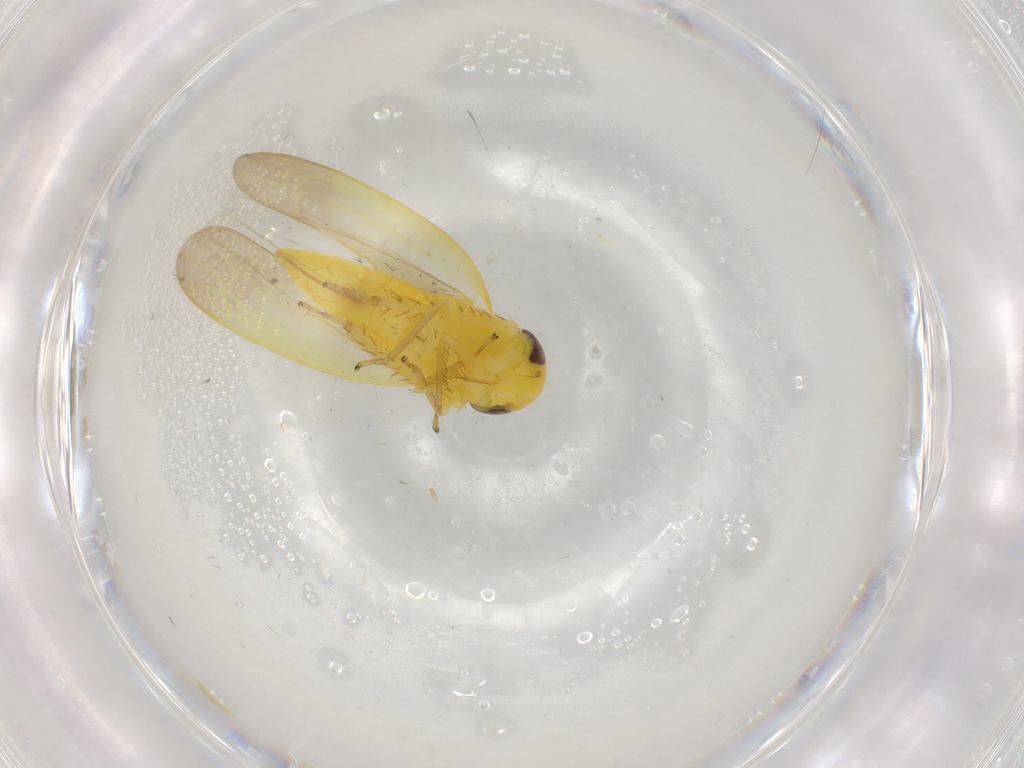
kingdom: Animalia
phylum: Arthropoda
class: Insecta
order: Hemiptera
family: Cicadellidae
